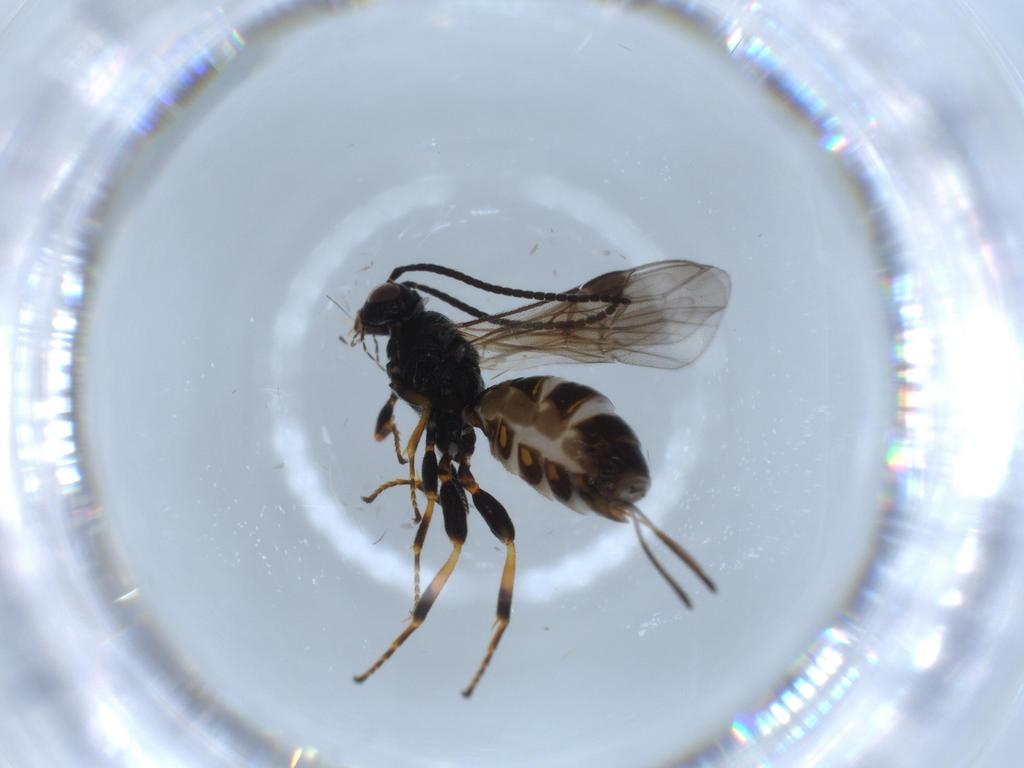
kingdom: Animalia
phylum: Arthropoda
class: Insecta
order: Hymenoptera
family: Braconidae
